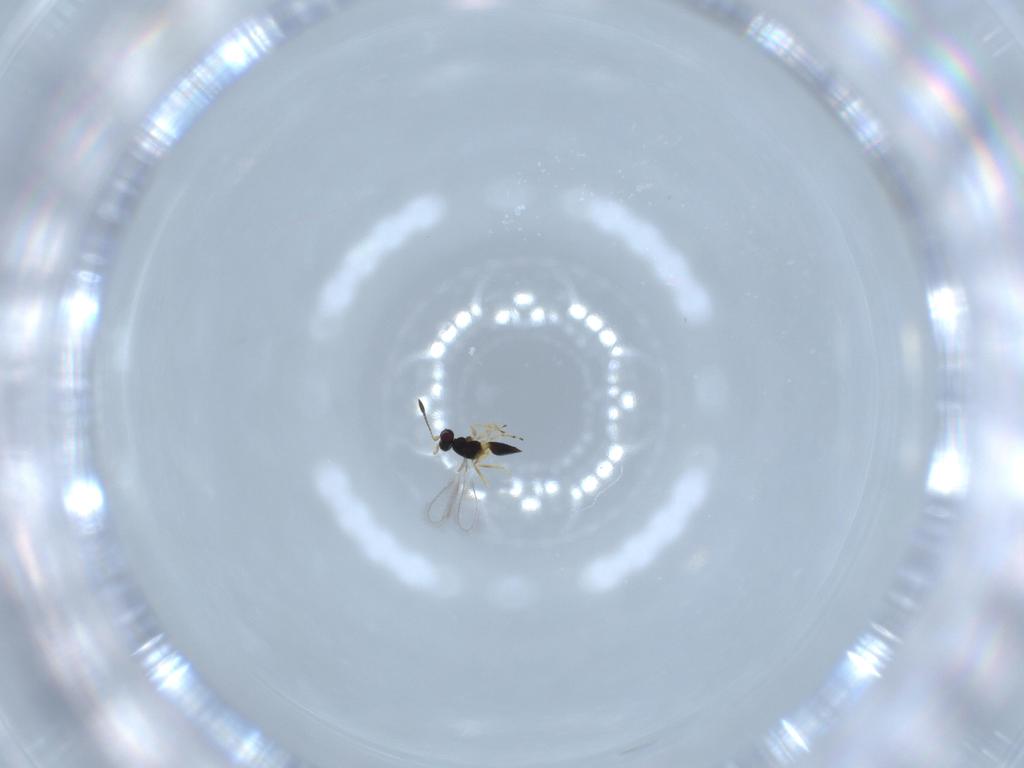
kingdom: Animalia
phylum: Arthropoda
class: Insecta
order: Hymenoptera
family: Mymaridae
